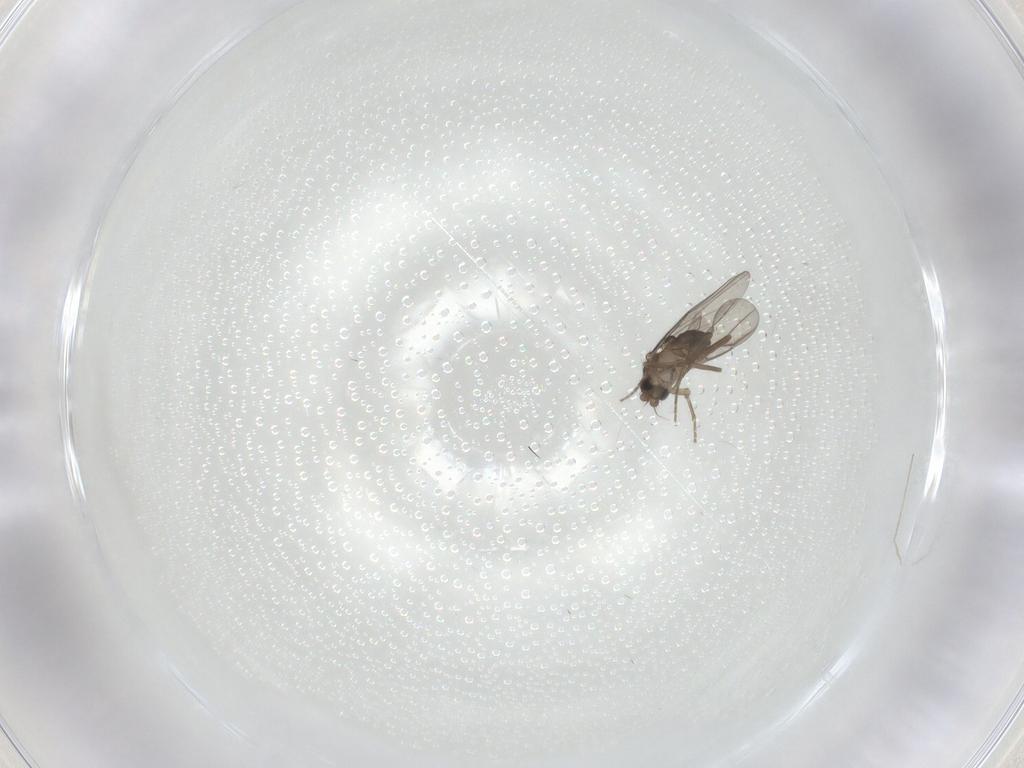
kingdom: Animalia
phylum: Arthropoda
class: Insecta
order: Diptera
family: Chironomidae
